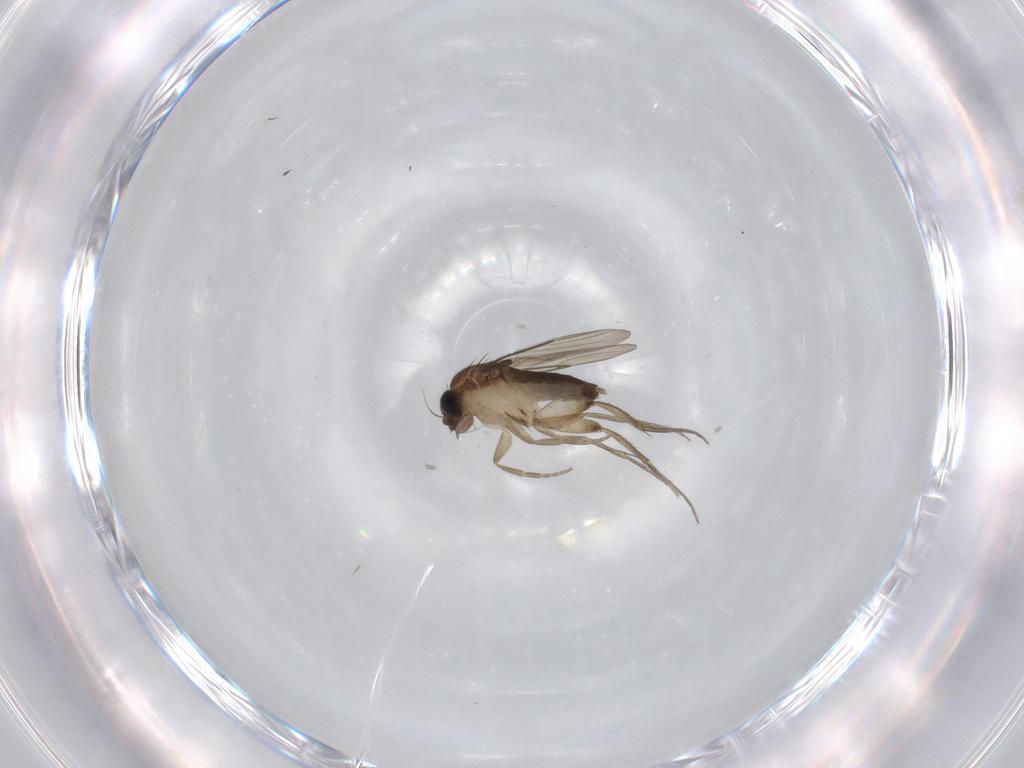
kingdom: Animalia
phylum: Arthropoda
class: Insecta
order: Diptera
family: Phoridae
